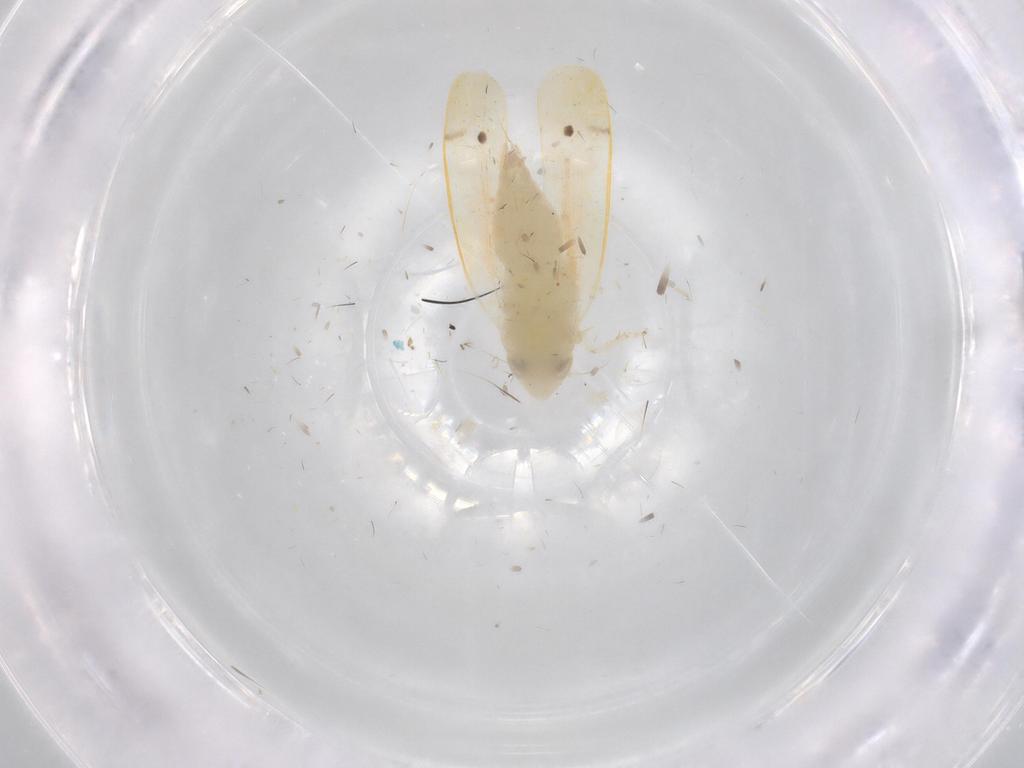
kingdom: Animalia
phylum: Arthropoda
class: Insecta
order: Hemiptera
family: Cicadellidae
